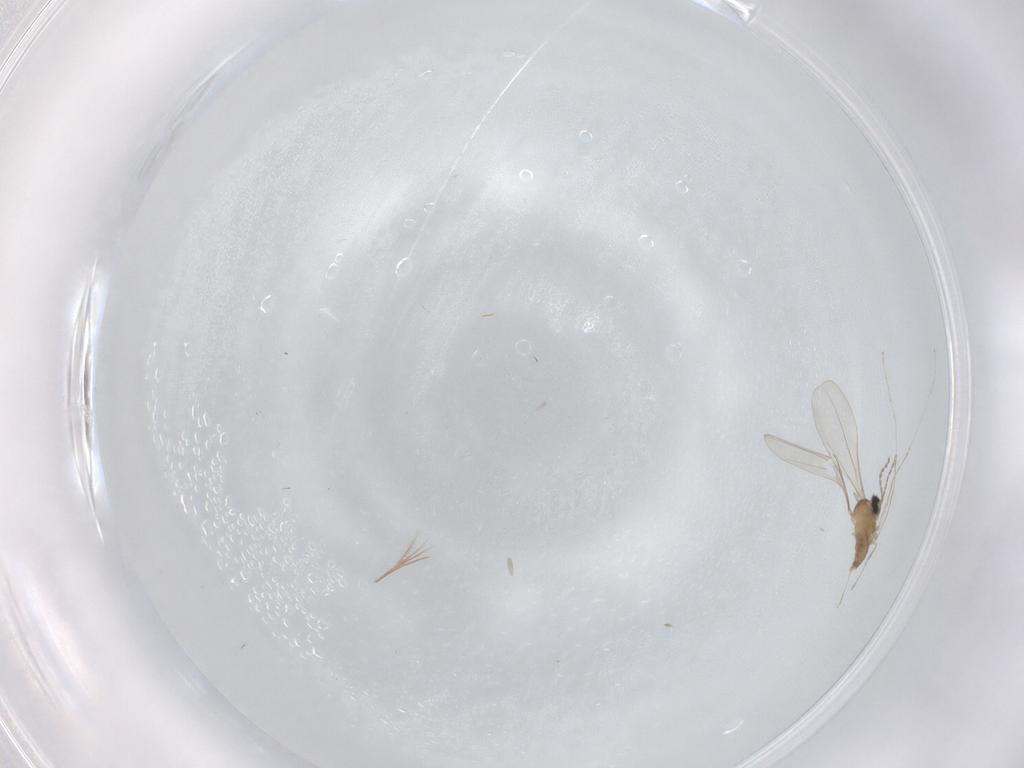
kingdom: Animalia
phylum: Arthropoda
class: Insecta
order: Diptera
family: Cecidomyiidae
